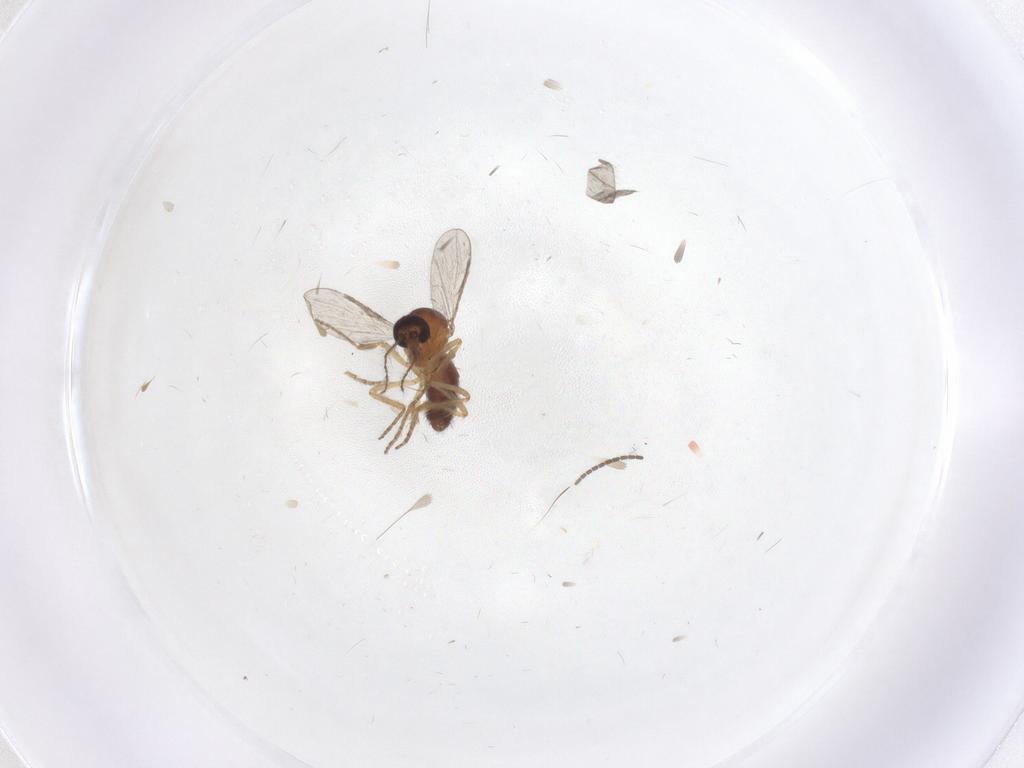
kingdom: Animalia
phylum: Arthropoda
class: Insecta
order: Diptera
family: Ceratopogonidae
